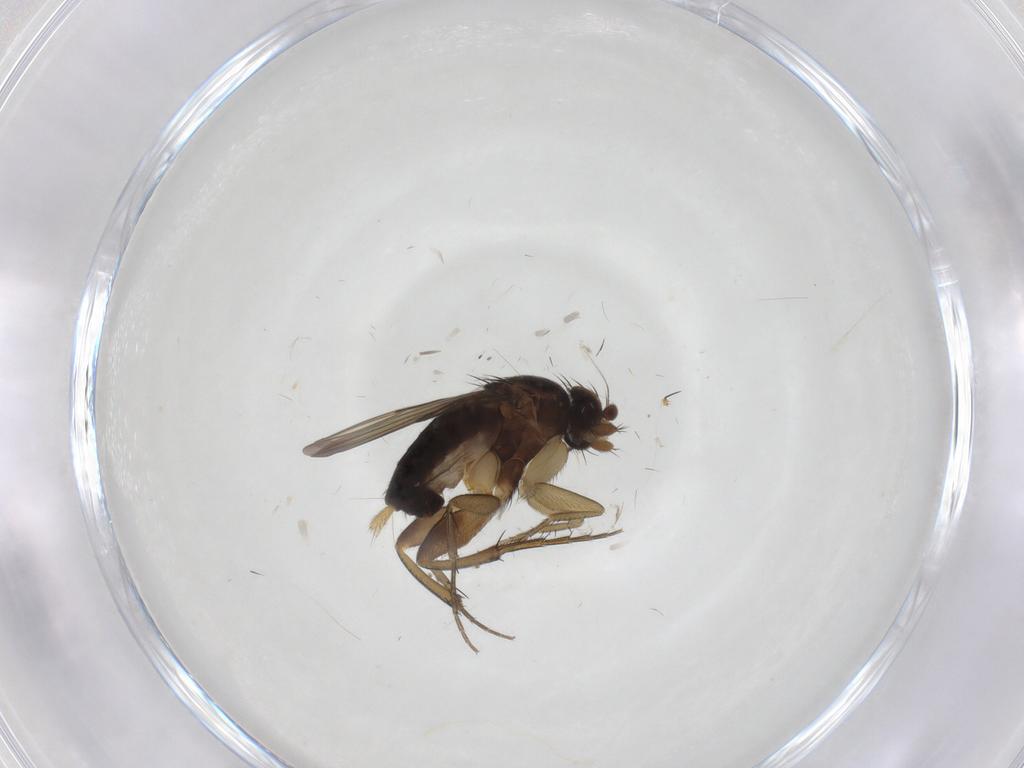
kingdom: Animalia
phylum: Arthropoda
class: Insecta
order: Diptera
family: Phoridae
